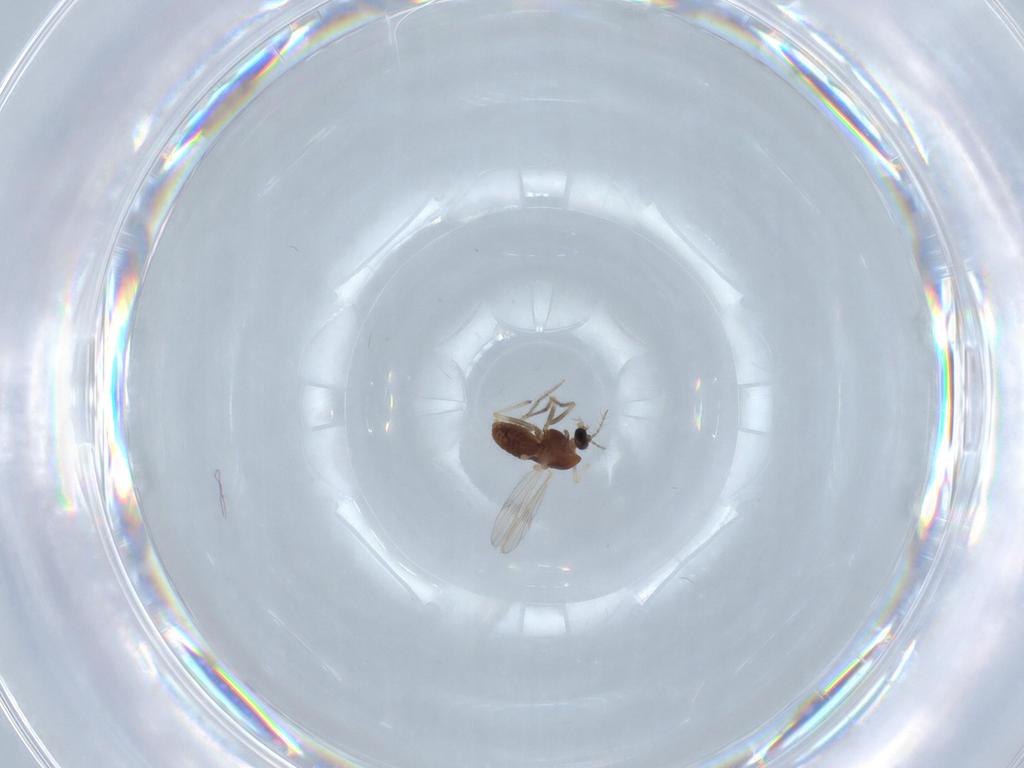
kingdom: Animalia
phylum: Arthropoda
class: Insecta
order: Diptera
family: Chironomidae
